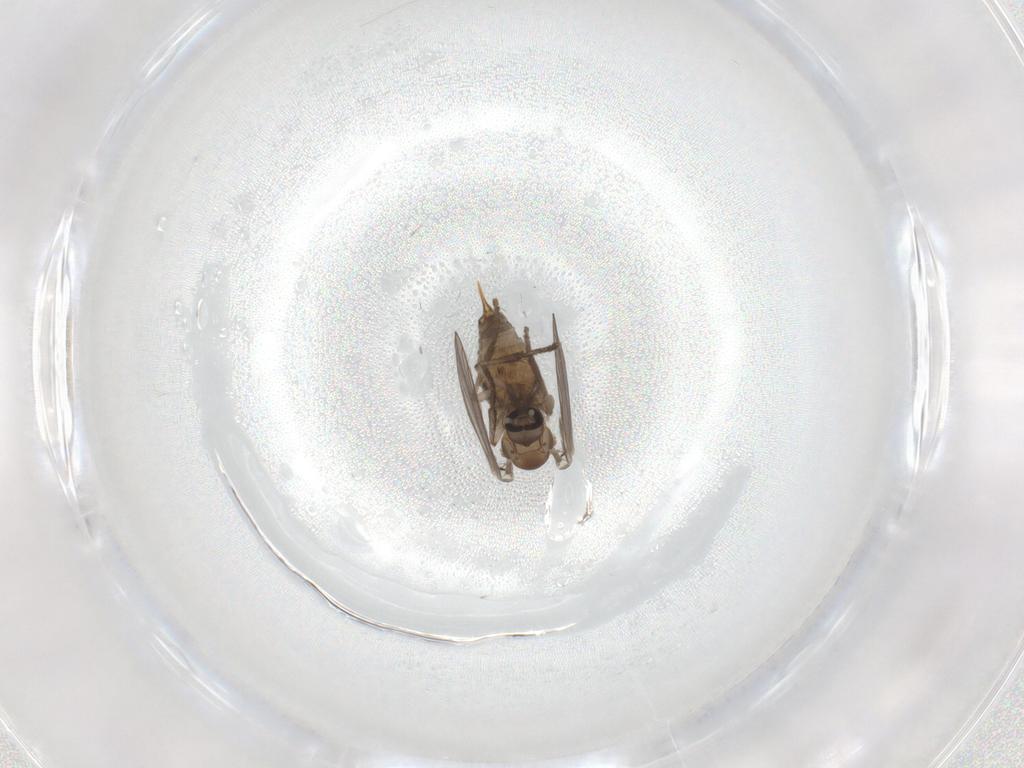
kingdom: Animalia
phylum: Arthropoda
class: Insecta
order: Diptera
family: Psychodidae
